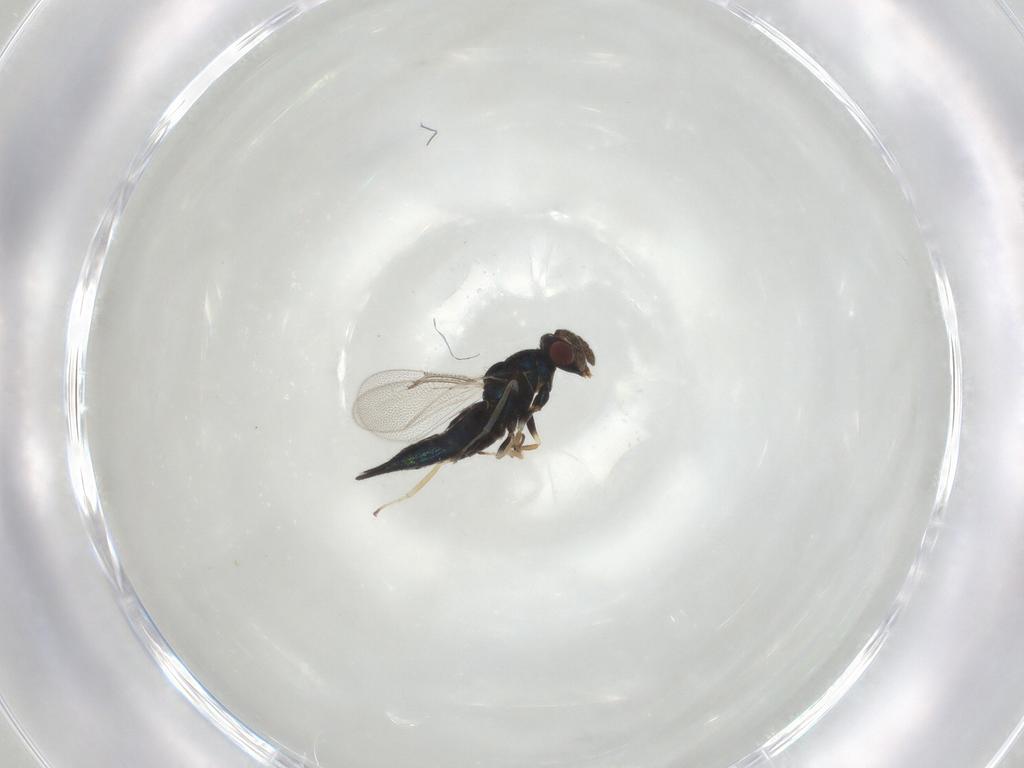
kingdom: Animalia
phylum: Arthropoda
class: Insecta
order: Hymenoptera
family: Eulophidae
